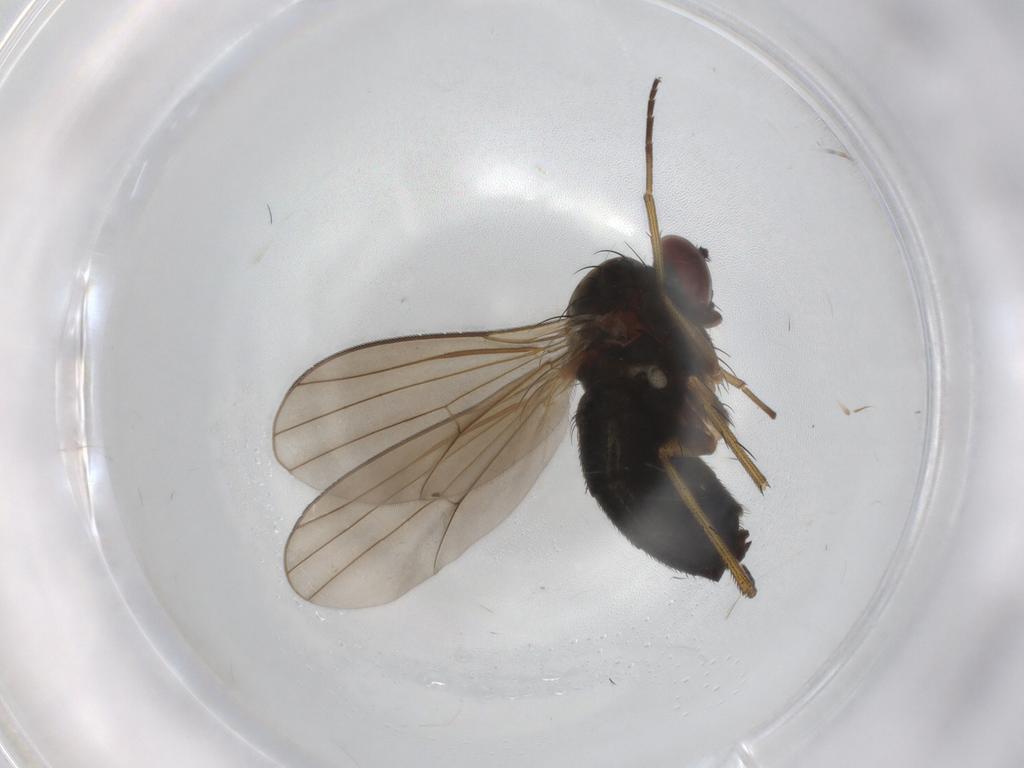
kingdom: Animalia
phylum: Arthropoda
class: Insecta
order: Diptera
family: Dolichopodidae
